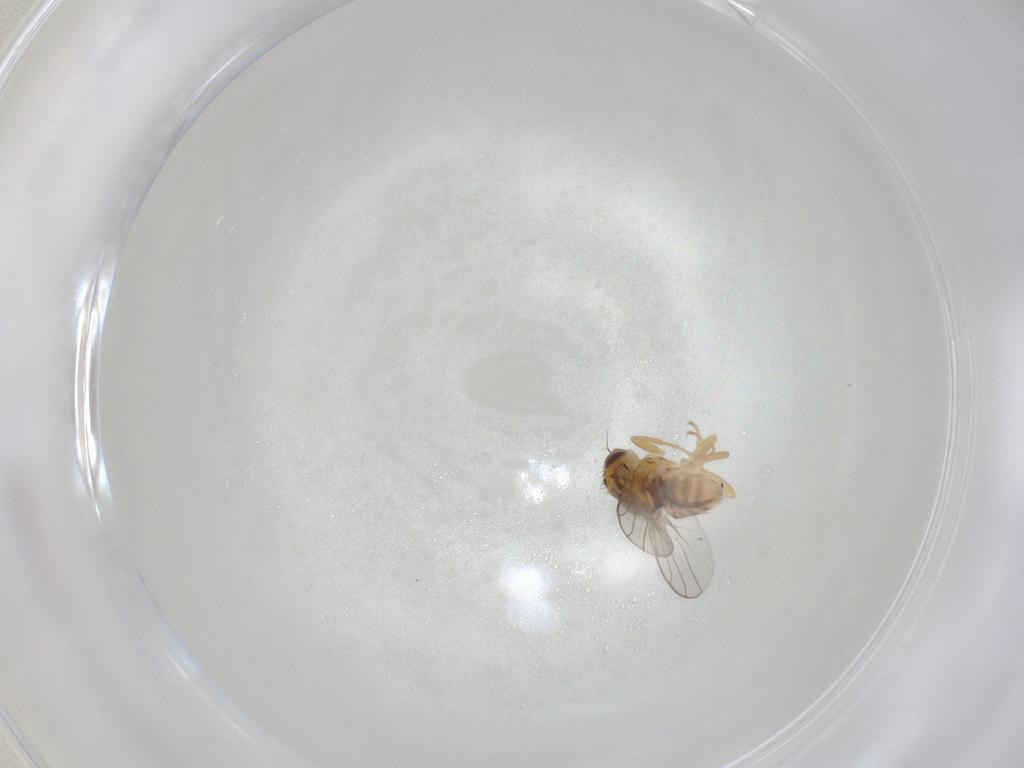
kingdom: Animalia
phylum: Arthropoda
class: Insecta
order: Diptera
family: Chloropidae
